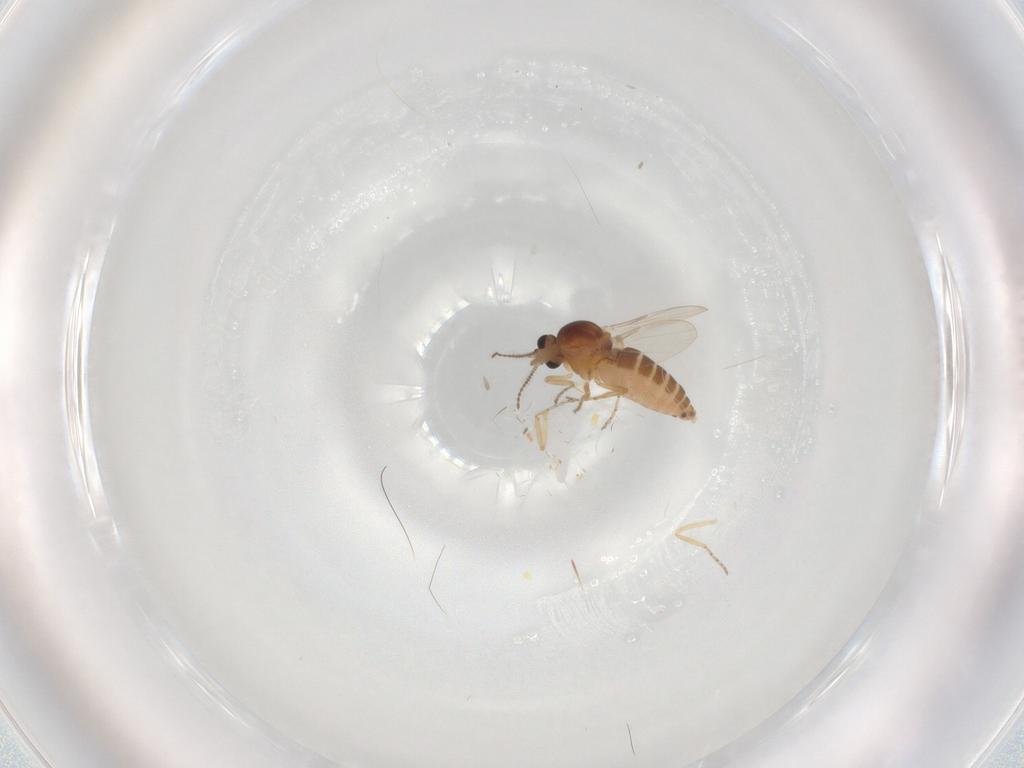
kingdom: Animalia
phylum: Arthropoda
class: Insecta
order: Diptera
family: Ceratopogonidae
